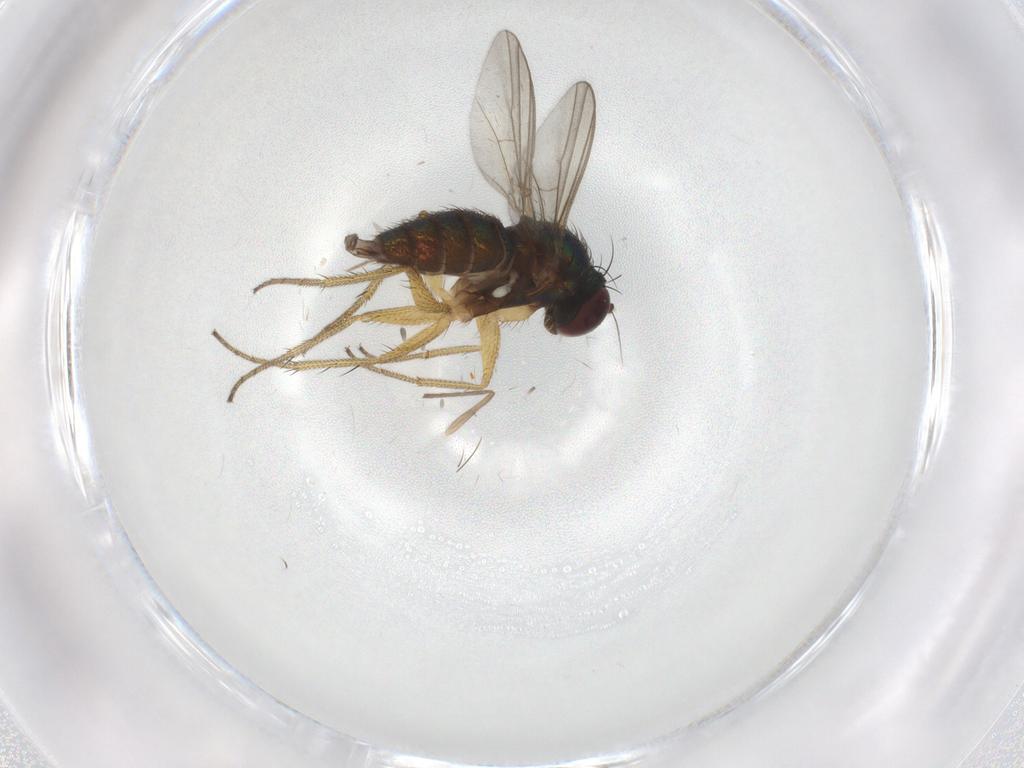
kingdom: Animalia
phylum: Arthropoda
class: Insecta
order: Diptera
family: Chironomidae
